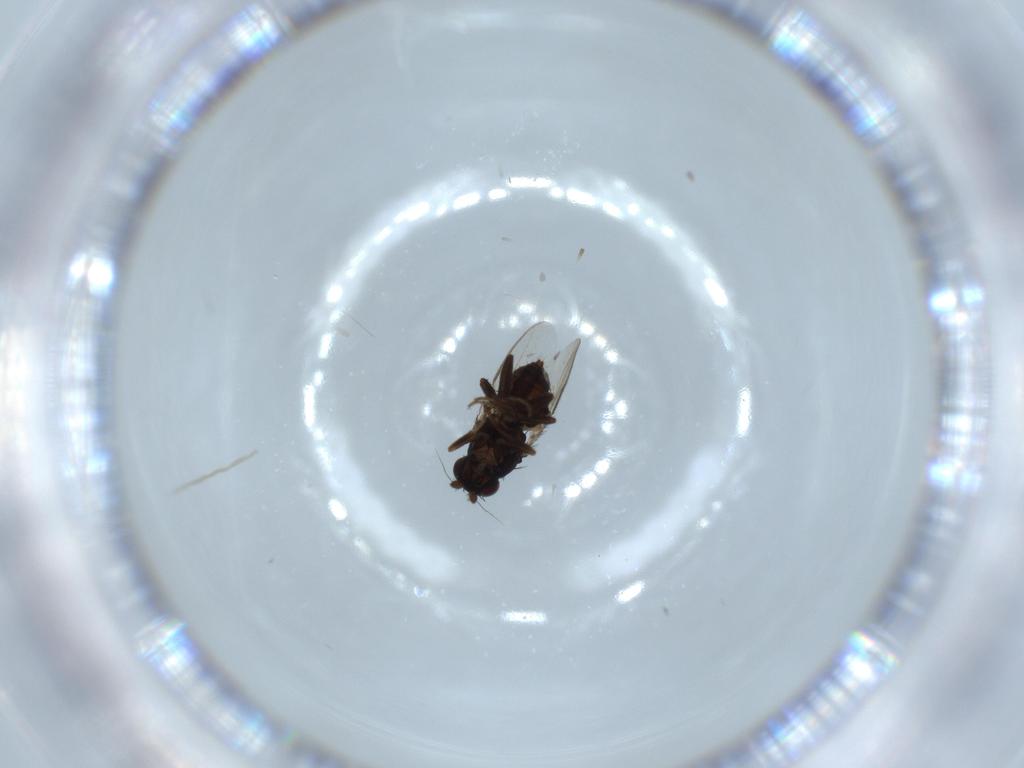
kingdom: Animalia
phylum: Arthropoda
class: Insecta
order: Diptera
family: Sphaeroceridae
